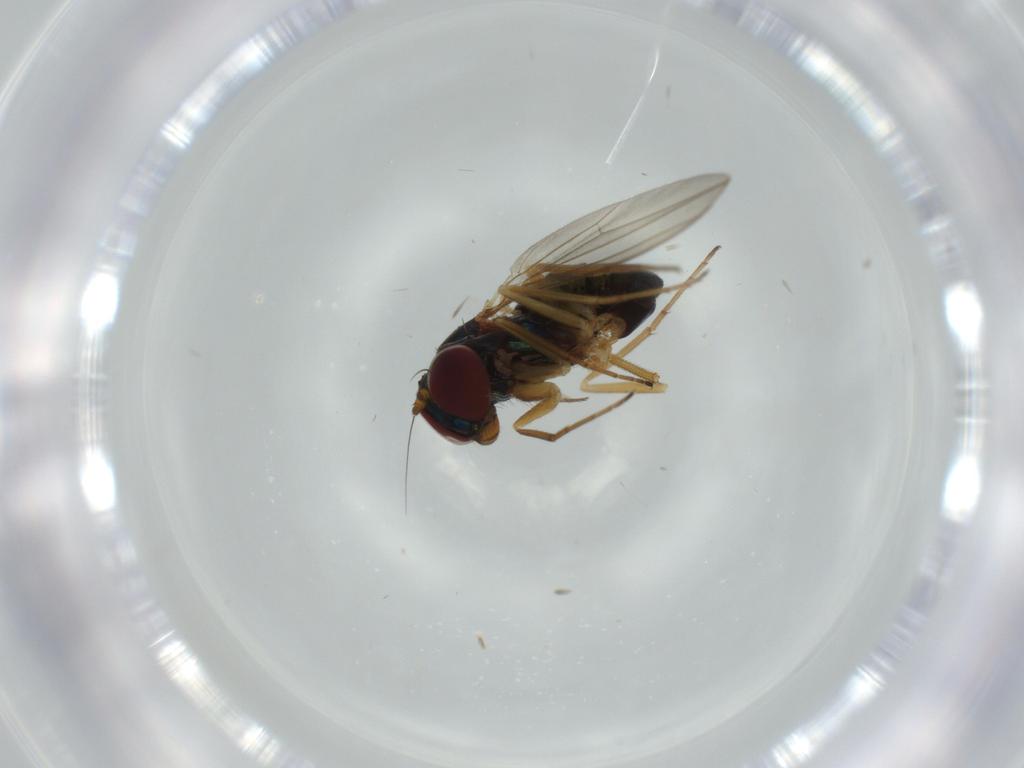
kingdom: Animalia
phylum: Arthropoda
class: Insecta
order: Diptera
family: Dolichopodidae
